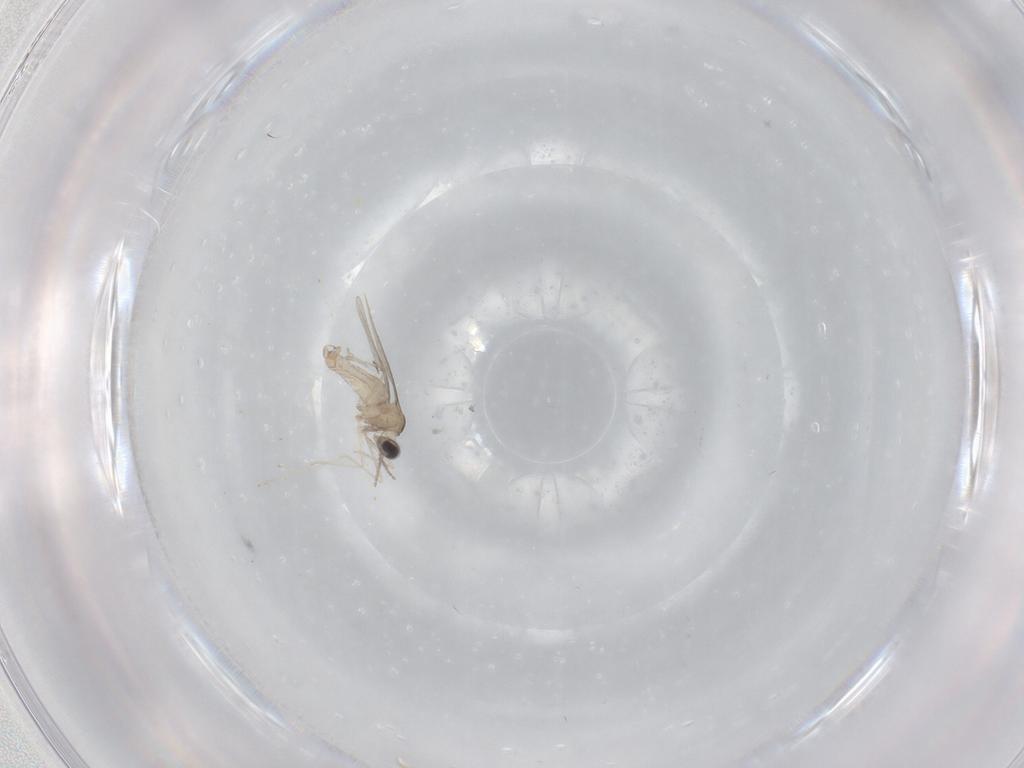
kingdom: Animalia
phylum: Arthropoda
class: Insecta
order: Diptera
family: Cecidomyiidae
